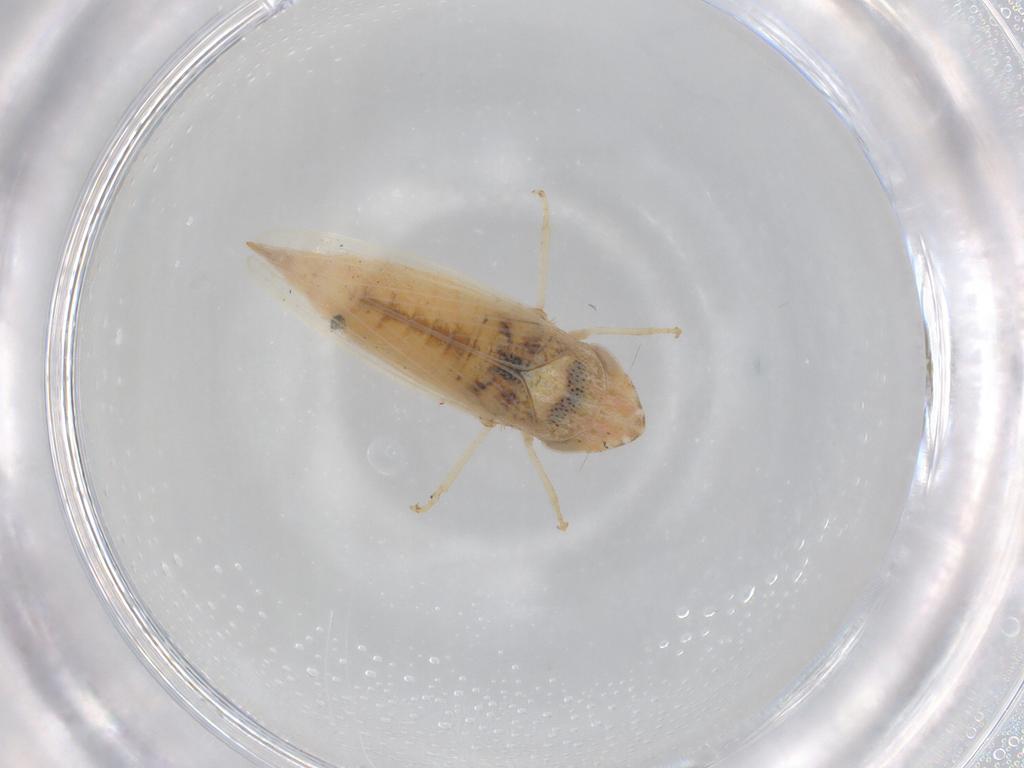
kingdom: Animalia
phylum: Arthropoda
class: Insecta
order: Hemiptera
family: Cicadellidae
